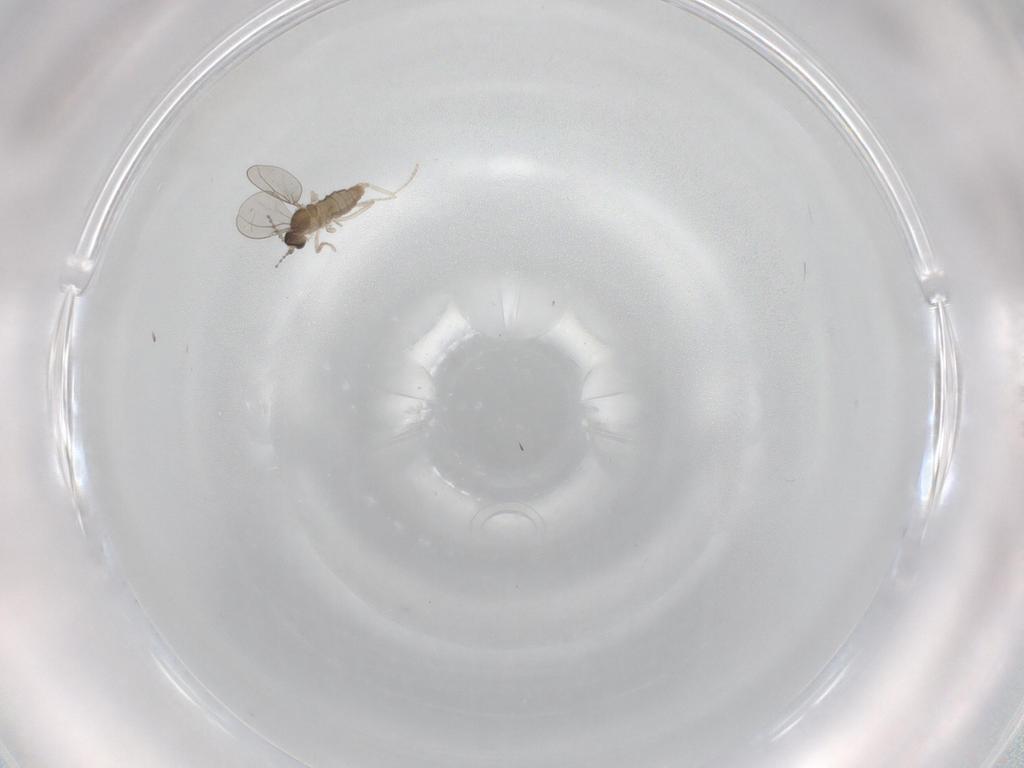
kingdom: Animalia
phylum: Arthropoda
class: Insecta
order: Diptera
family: Cecidomyiidae
